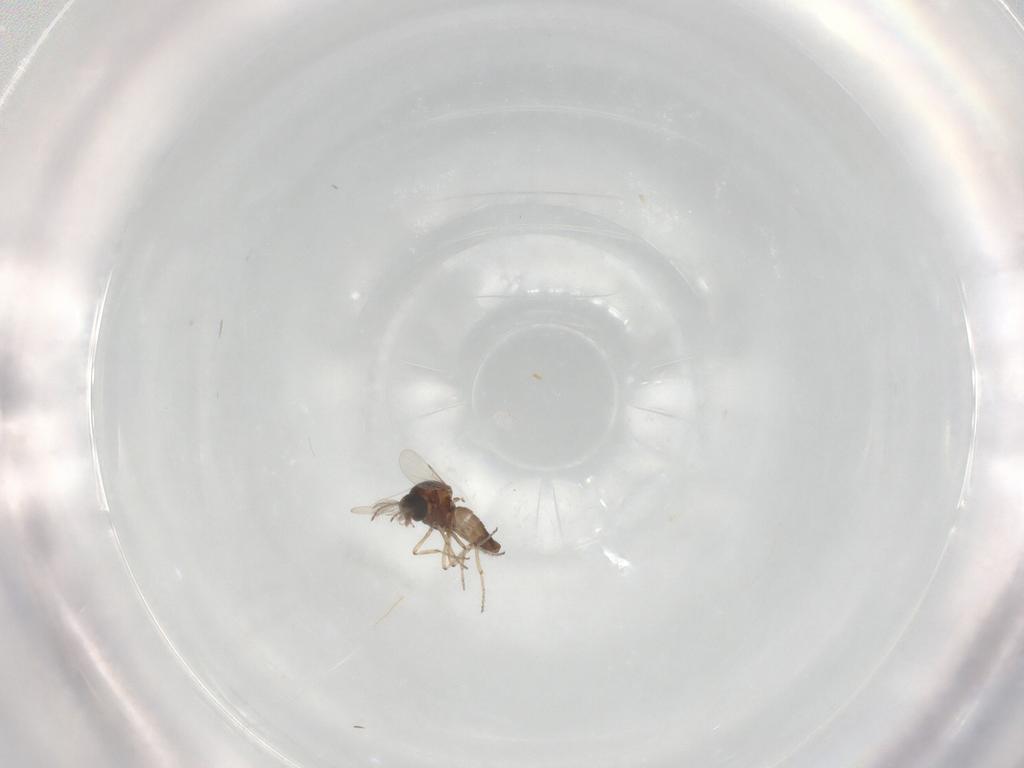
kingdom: Animalia
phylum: Arthropoda
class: Insecta
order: Diptera
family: Ceratopogonidae
